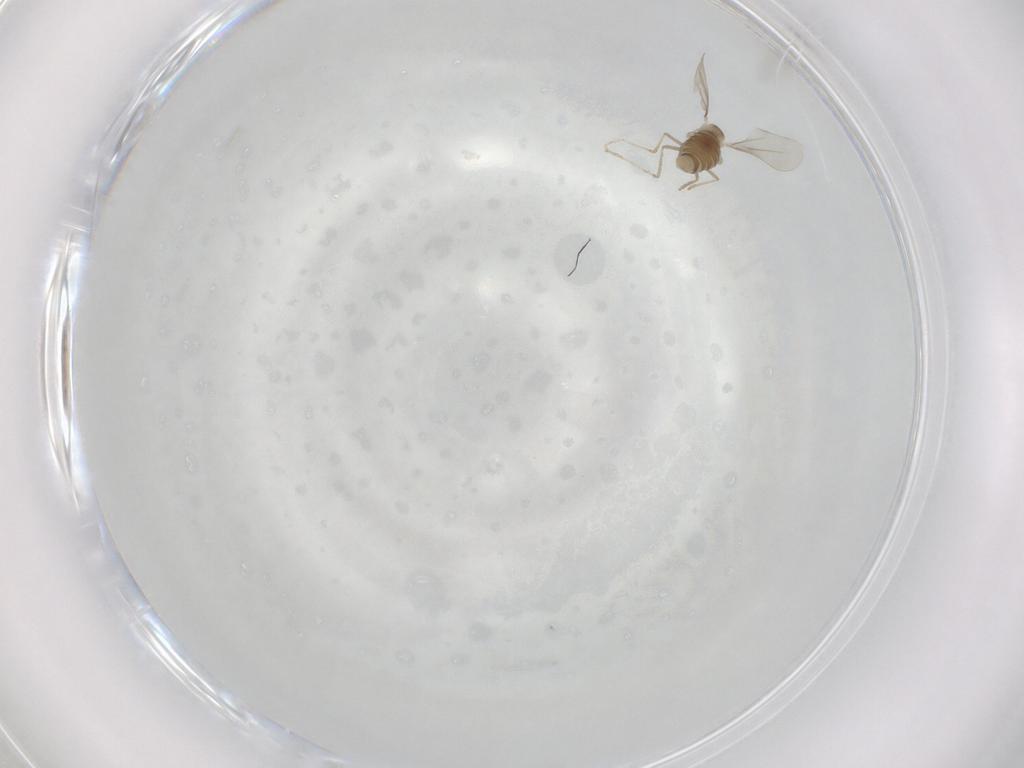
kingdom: Animalia
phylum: Arthropoda
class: Insecta
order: Diptera
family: Cecidomyiidae
